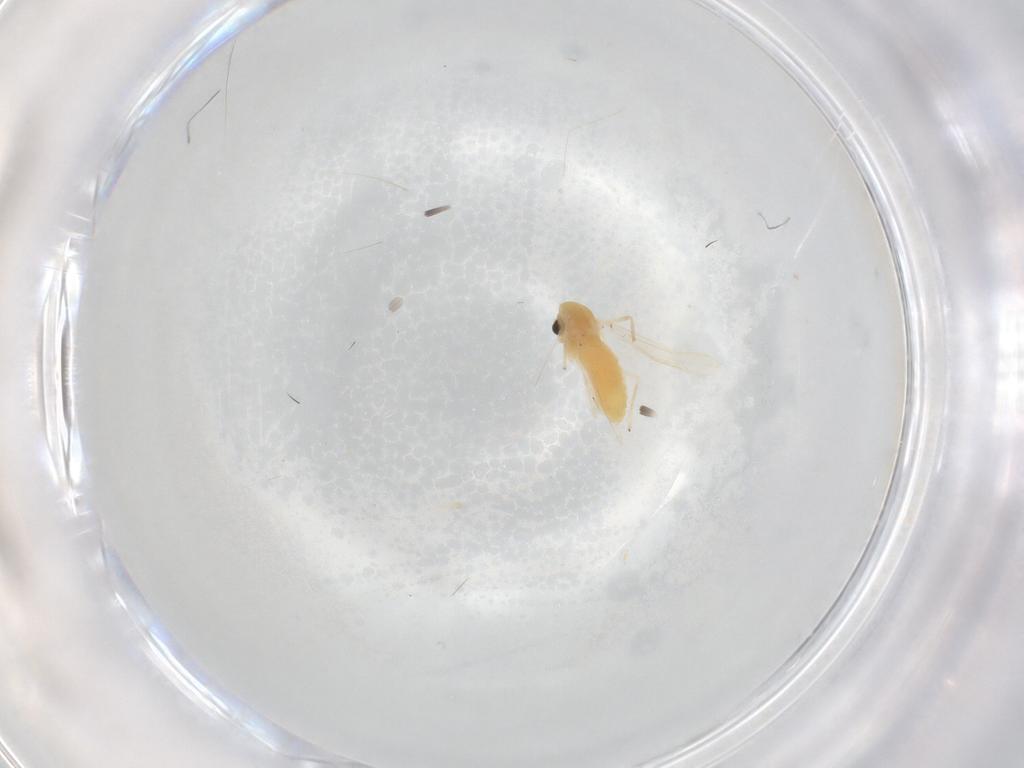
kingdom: Animalia
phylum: Arthropoda
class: Insecta
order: Diptera
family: Chironomidae
